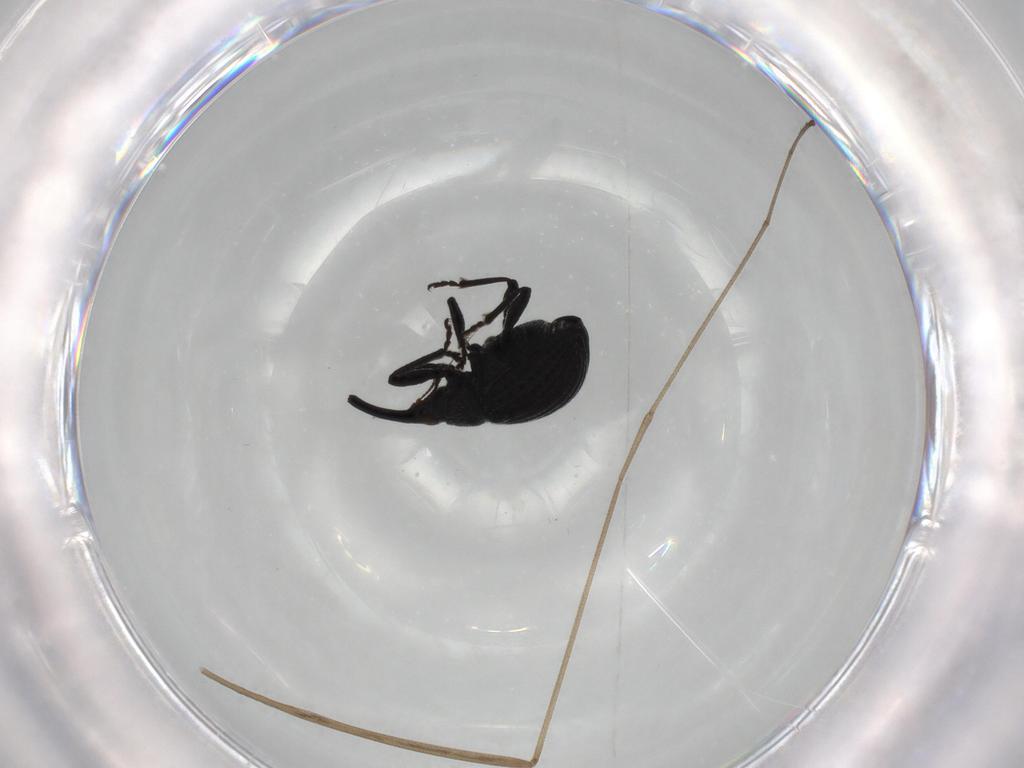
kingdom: Animalia
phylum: Arthropoda
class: Insecta
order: Coleoptera
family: Brentidae
